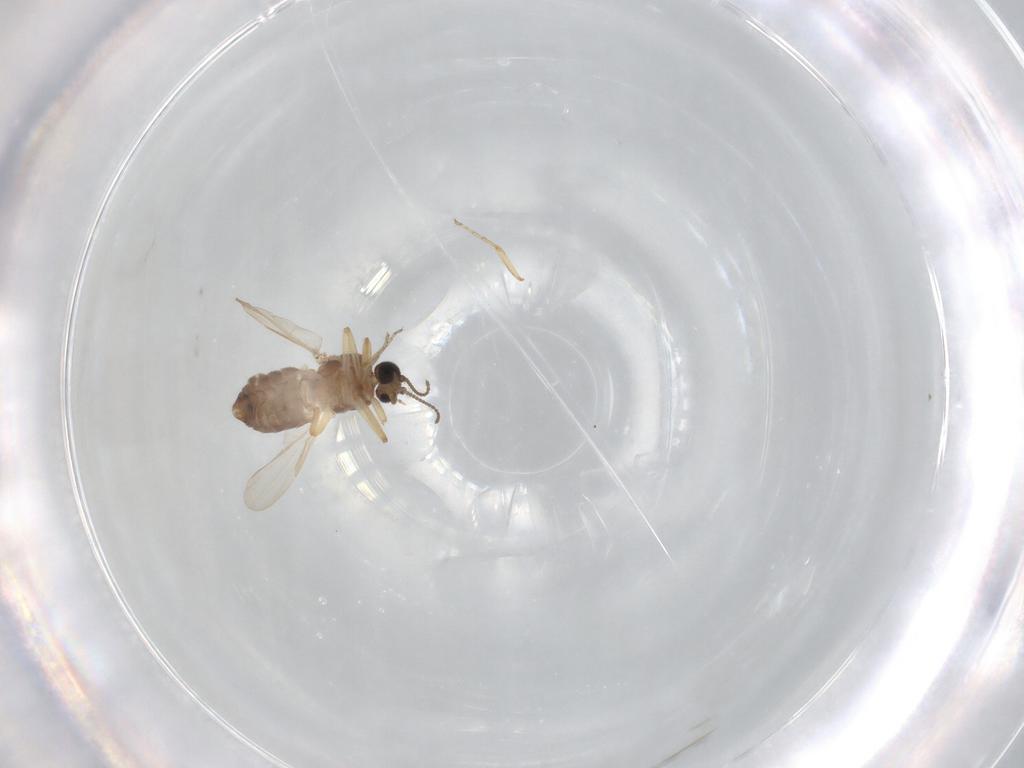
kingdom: Animalia
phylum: Arthropoda
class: Insecta
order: Diptera
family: Ceratopogonidae
